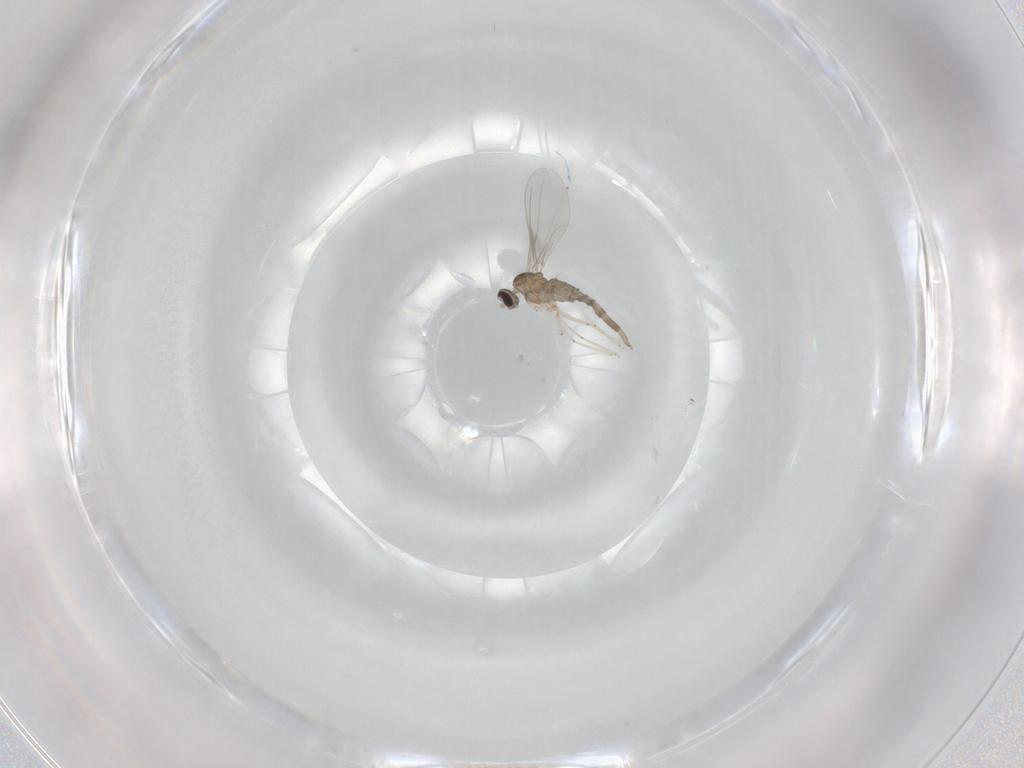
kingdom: Animalia
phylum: Arthropoda
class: Insecta
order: Diptera
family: Cecidomyiidae
